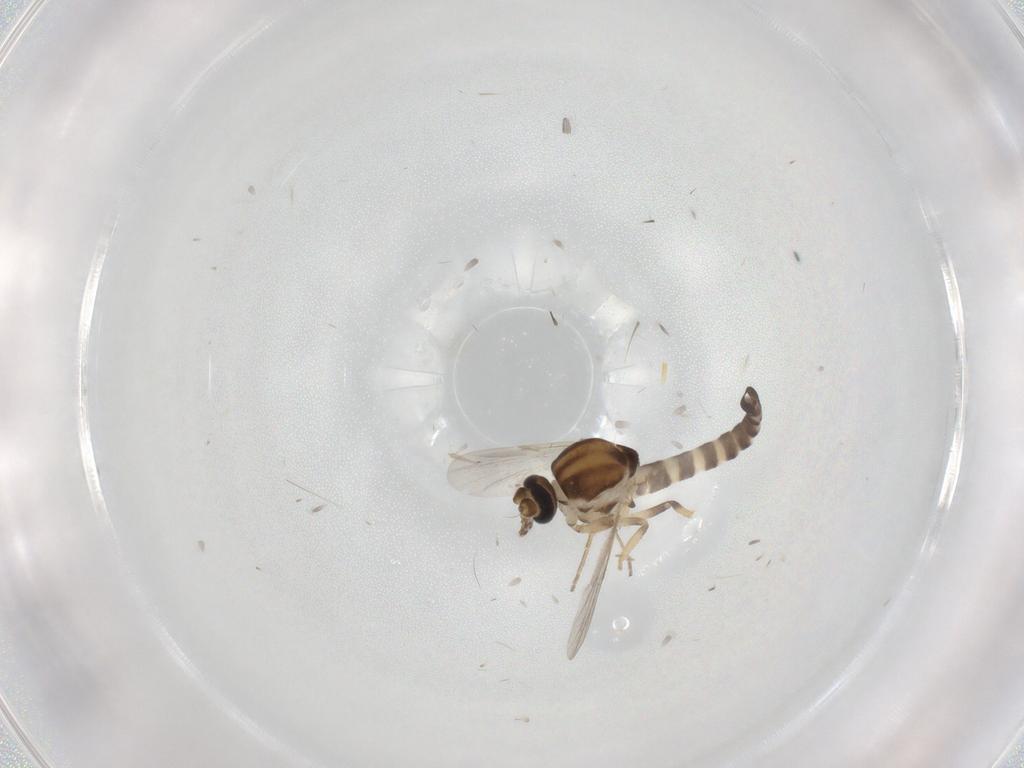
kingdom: Animalia
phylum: Arthropoda
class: Insecta
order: Diptera
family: Ceratopogonidae
